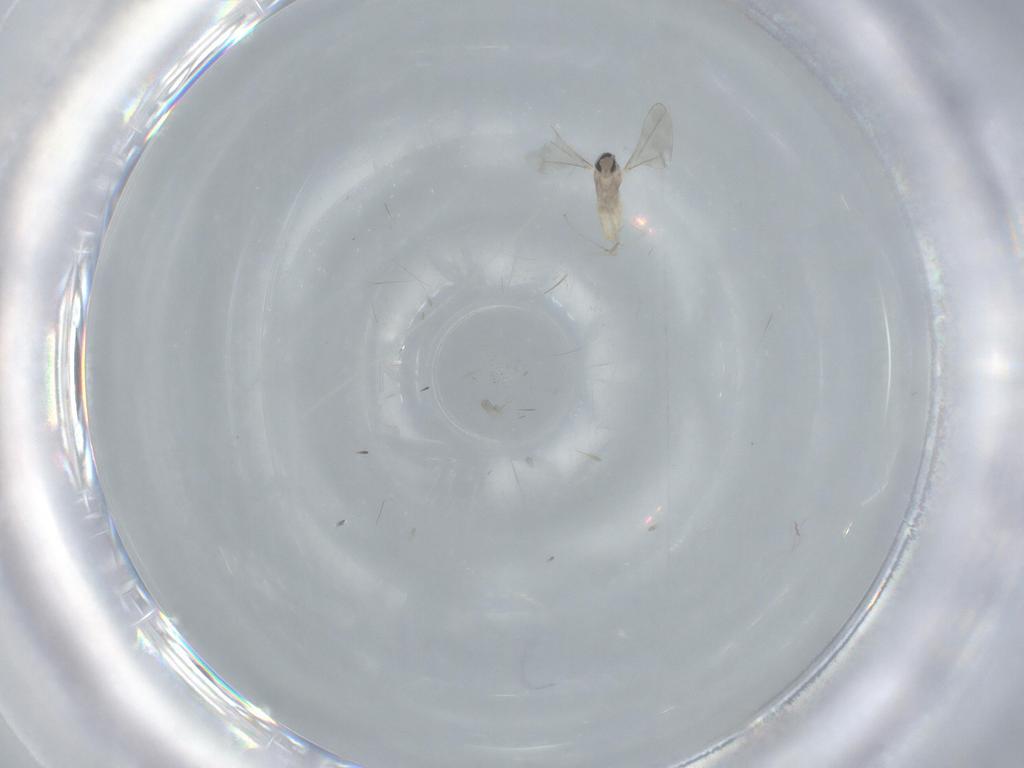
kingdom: Animalia
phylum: Arthropoda
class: Insecta
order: Diptera
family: Cecidomyiidae
